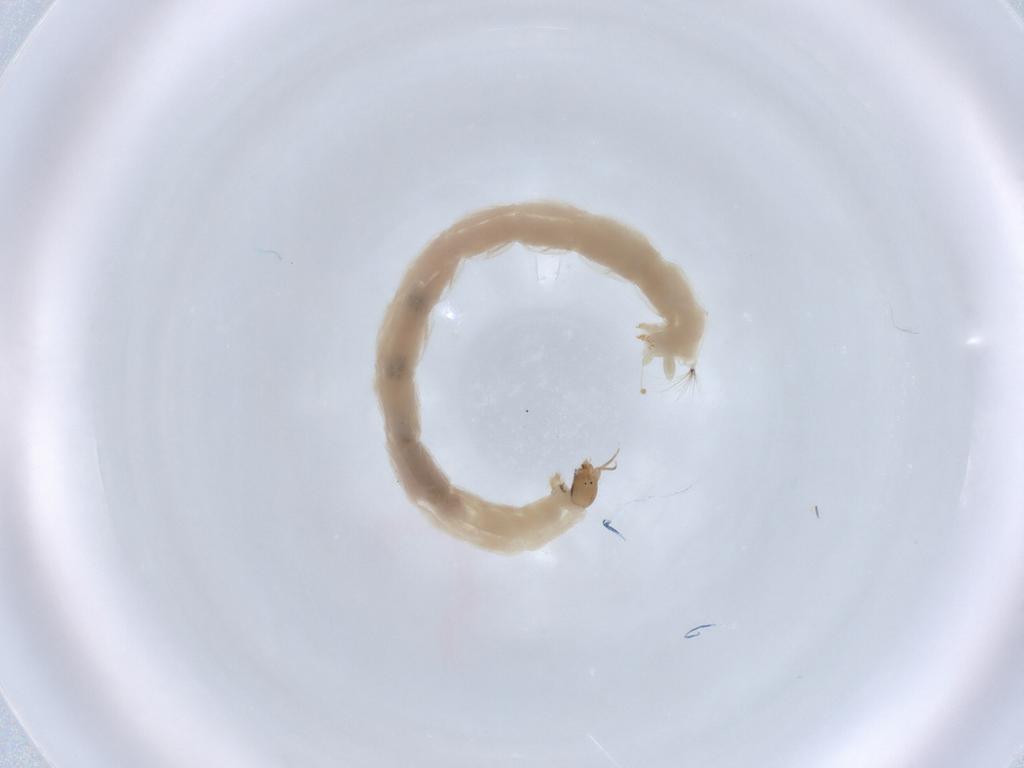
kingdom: Animalia
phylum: Arthropoda
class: Insecta
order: Diptera
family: Chironomidae
